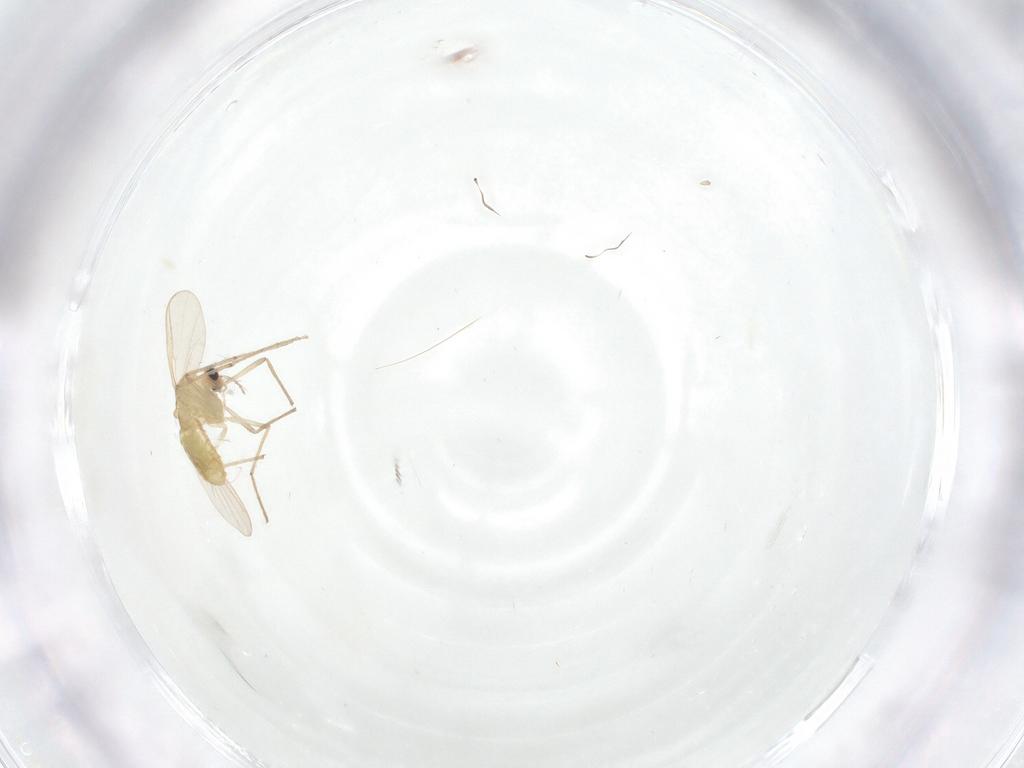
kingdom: Animalia
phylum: Arthropoda
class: Insecta
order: Diptera
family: Chironomidae
